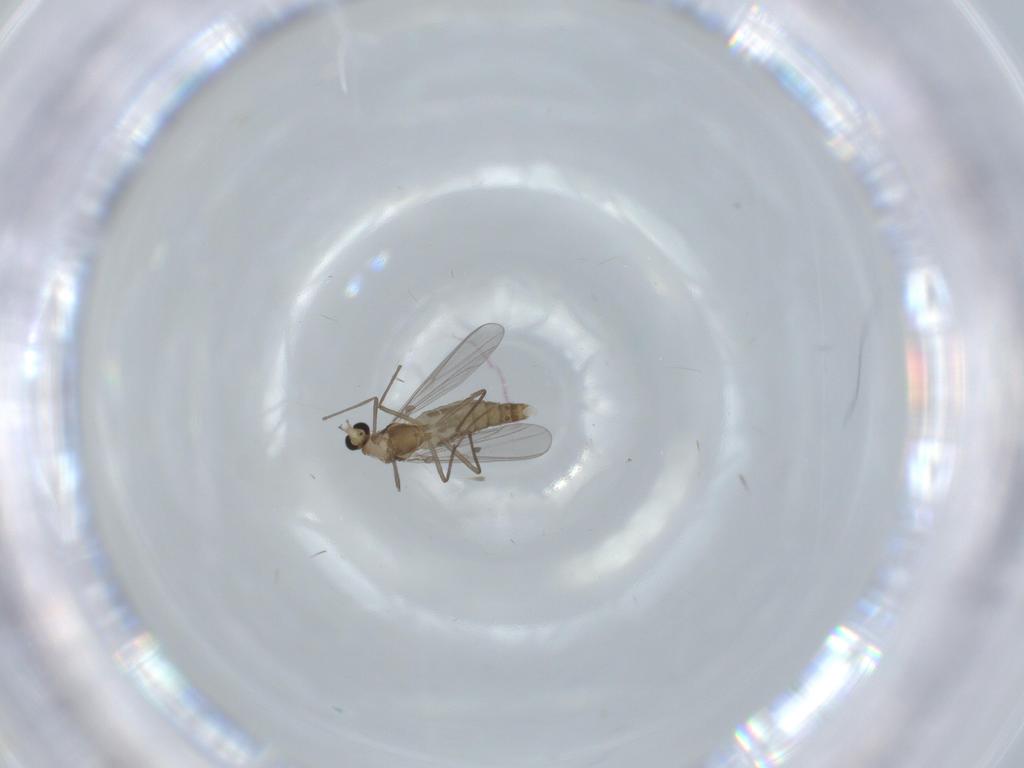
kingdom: Animalia
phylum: Arthropoda
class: Insecta
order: Diptera
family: Chironomidae
